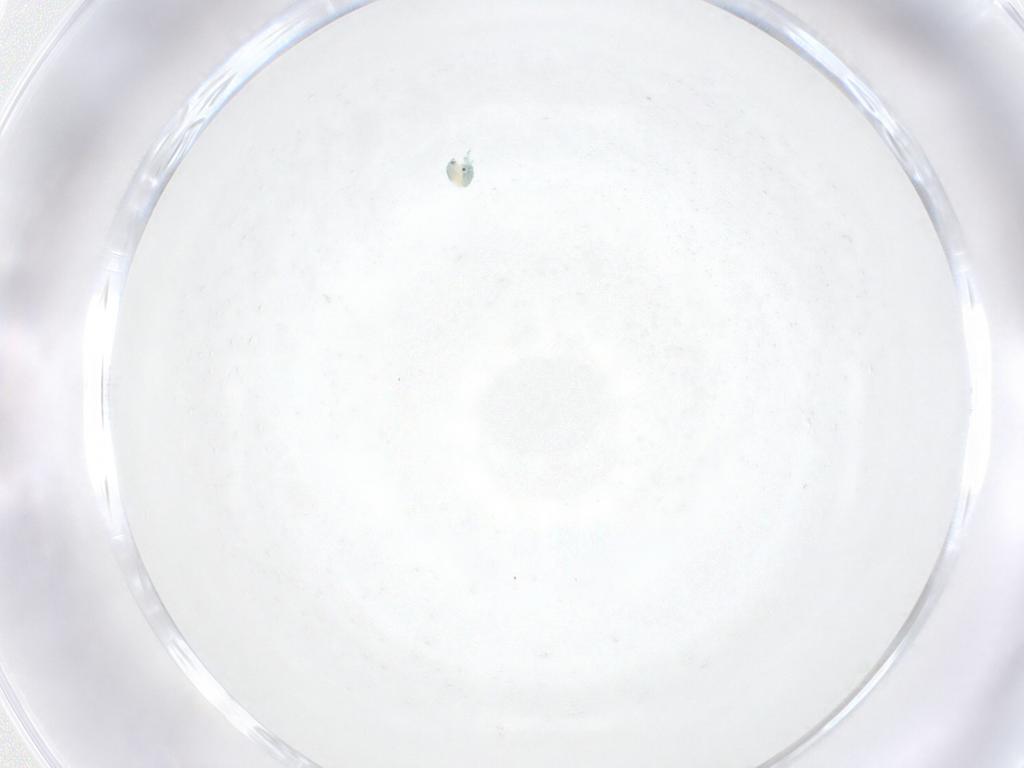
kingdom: Animalia
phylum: Arthropoda
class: Arachnida
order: Trombidiformes
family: Arrenuridae
